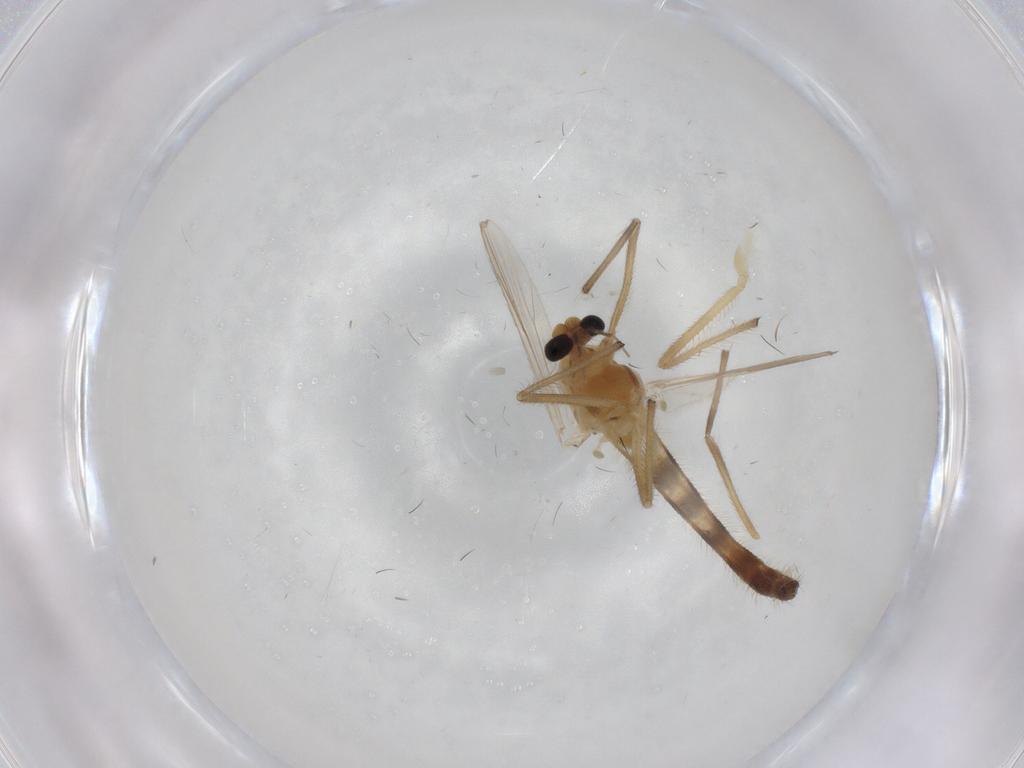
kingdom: Animalia
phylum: Arthropoda
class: Insecta
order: Diptera
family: Chironomidae
